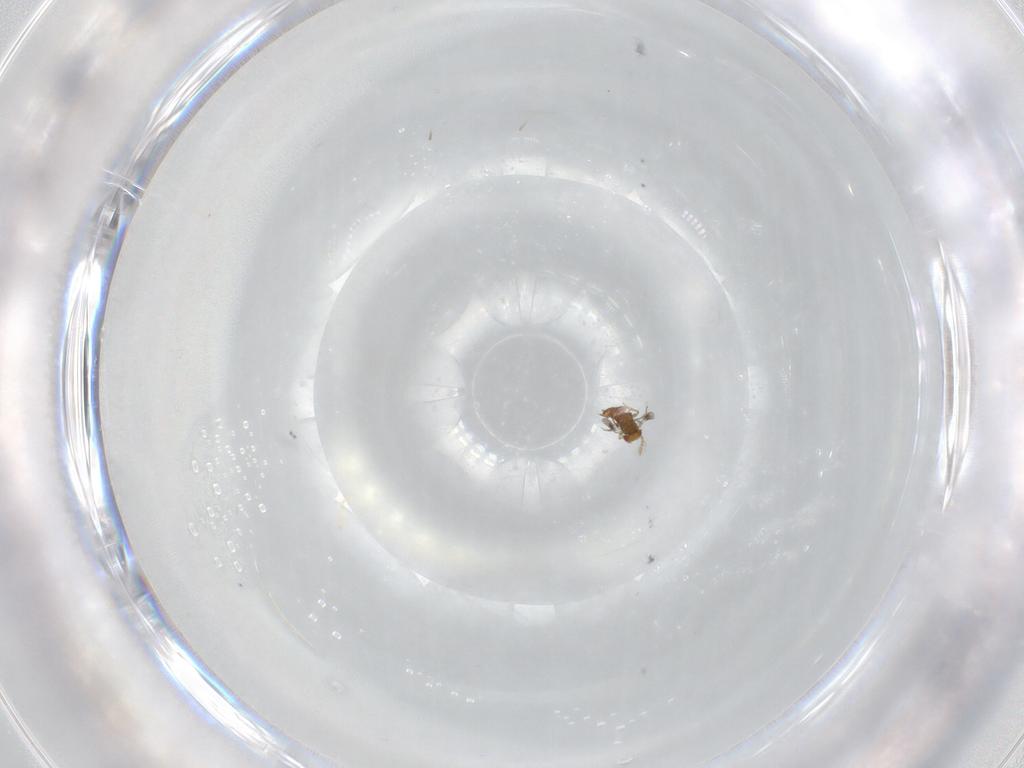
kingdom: Animalia
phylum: Arthropoda
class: Insecta
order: Hymenoptera
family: Trichogrammatidae
